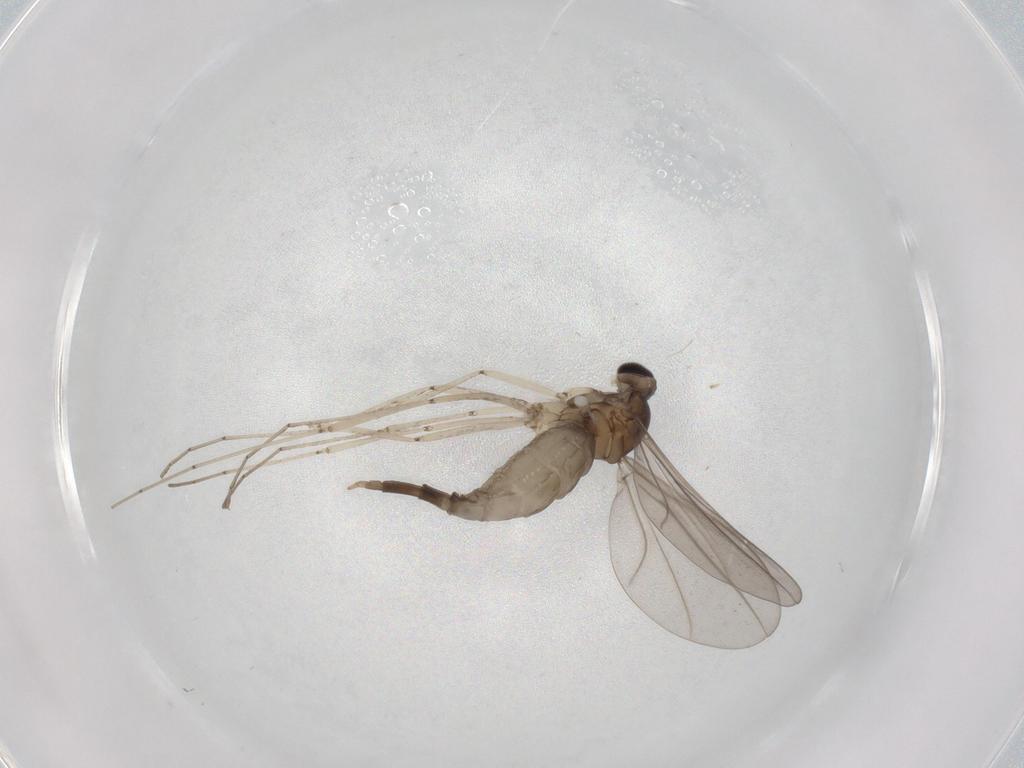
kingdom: Animalia
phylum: Arthropoda
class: Insecta
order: Diptera
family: Cecidomyiidae
